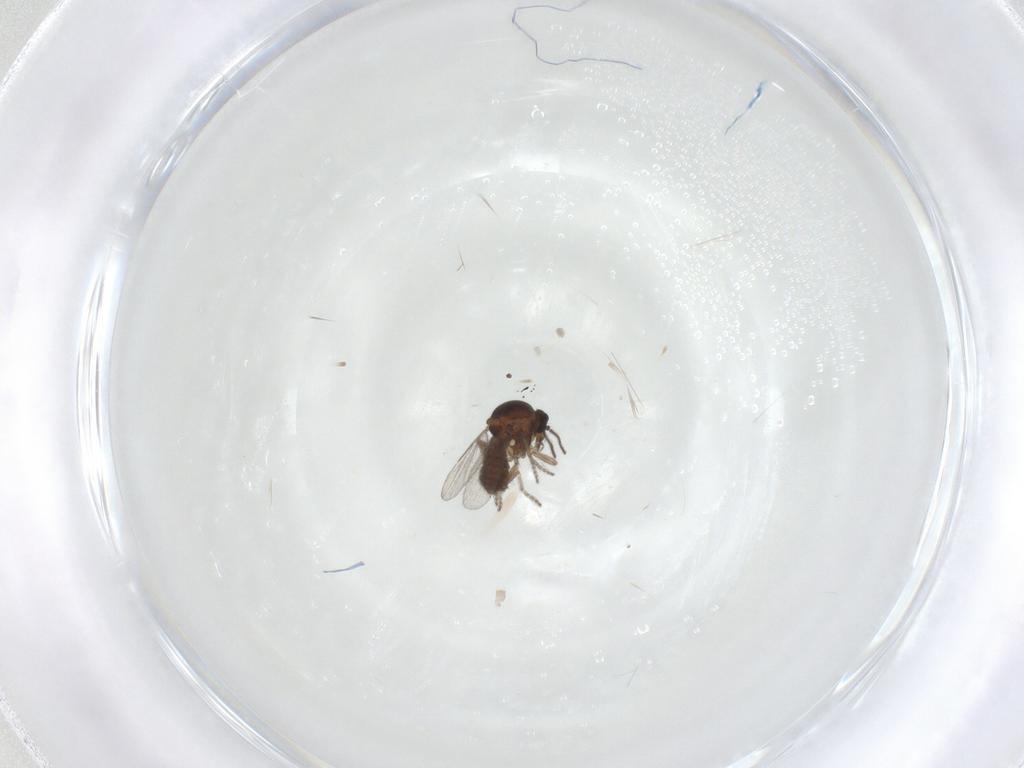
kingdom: Animalia
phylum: Arthropoda
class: Insecta
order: Diptera
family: Ceratopogonidae
